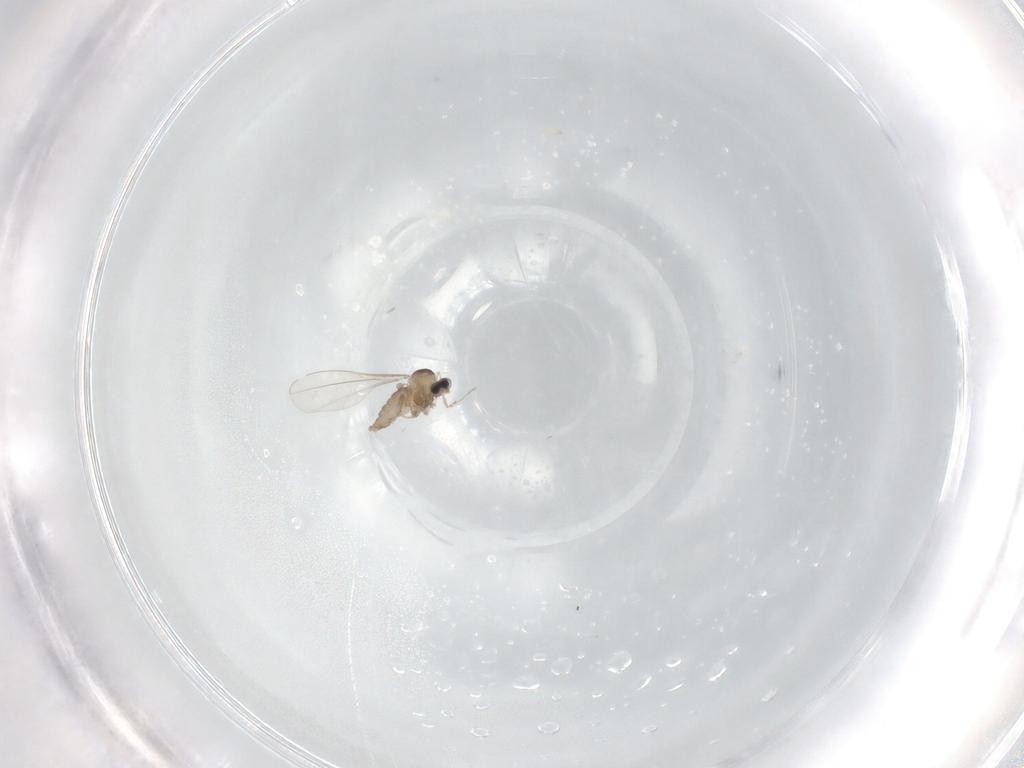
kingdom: Animalia
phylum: Arthropoda
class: Insecta
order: Diptera
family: Cecidomyiidae
